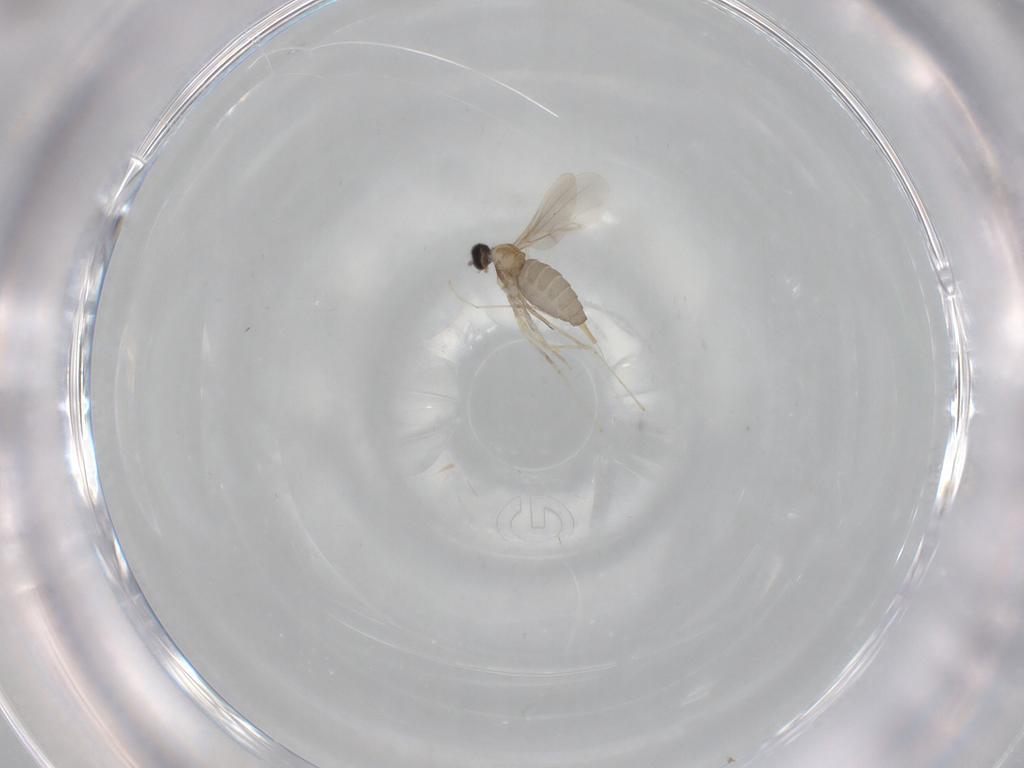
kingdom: Animalia
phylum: Arthropoda
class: Insecta
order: Diptera
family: Cecidomyiidae
